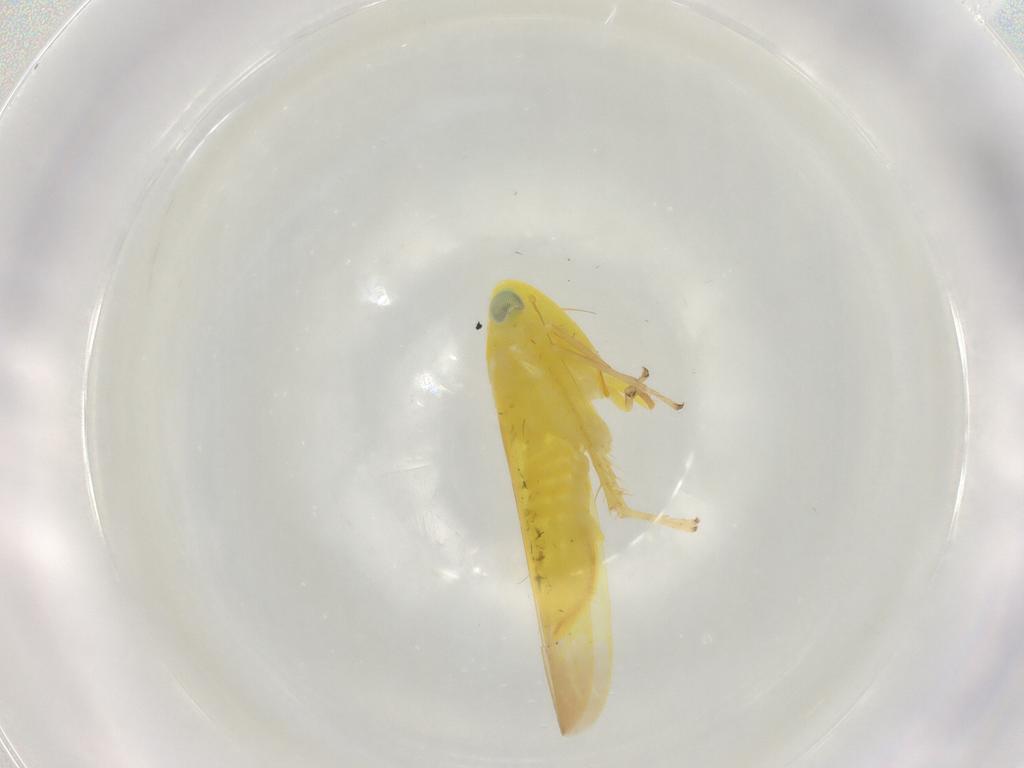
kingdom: Animalia
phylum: Arthropoda
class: Insecta
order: Hemiptera
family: Cicadellidae
